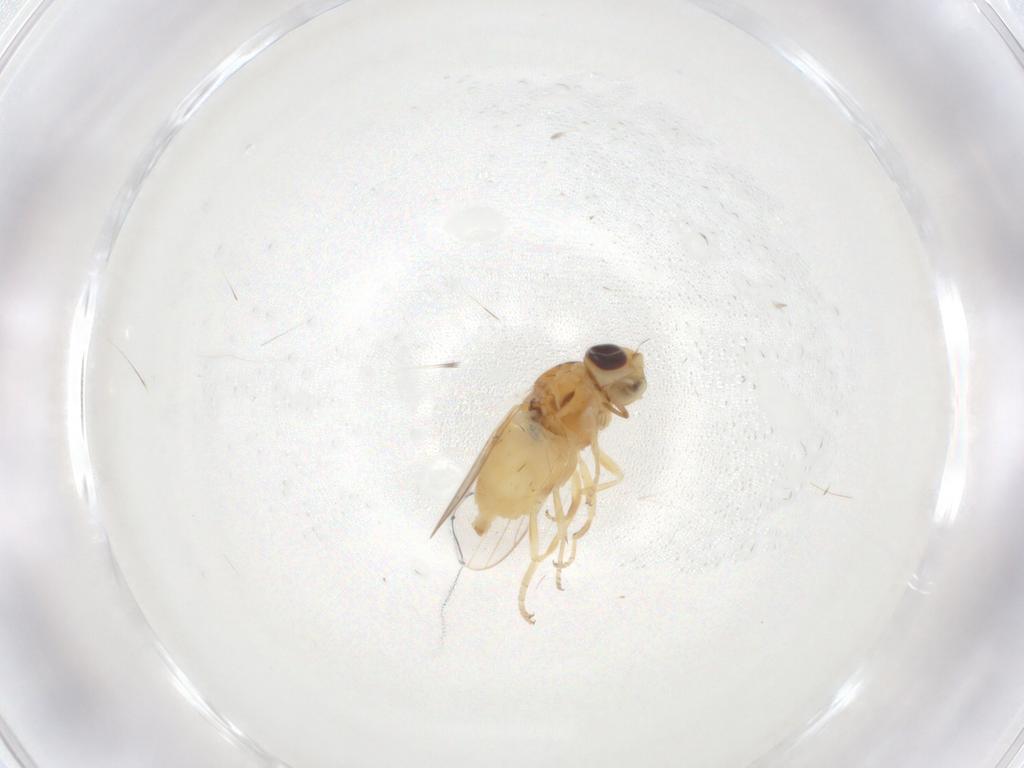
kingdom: Animalia
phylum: Arthropoda
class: Insecta
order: Diptera
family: Chloropidae
